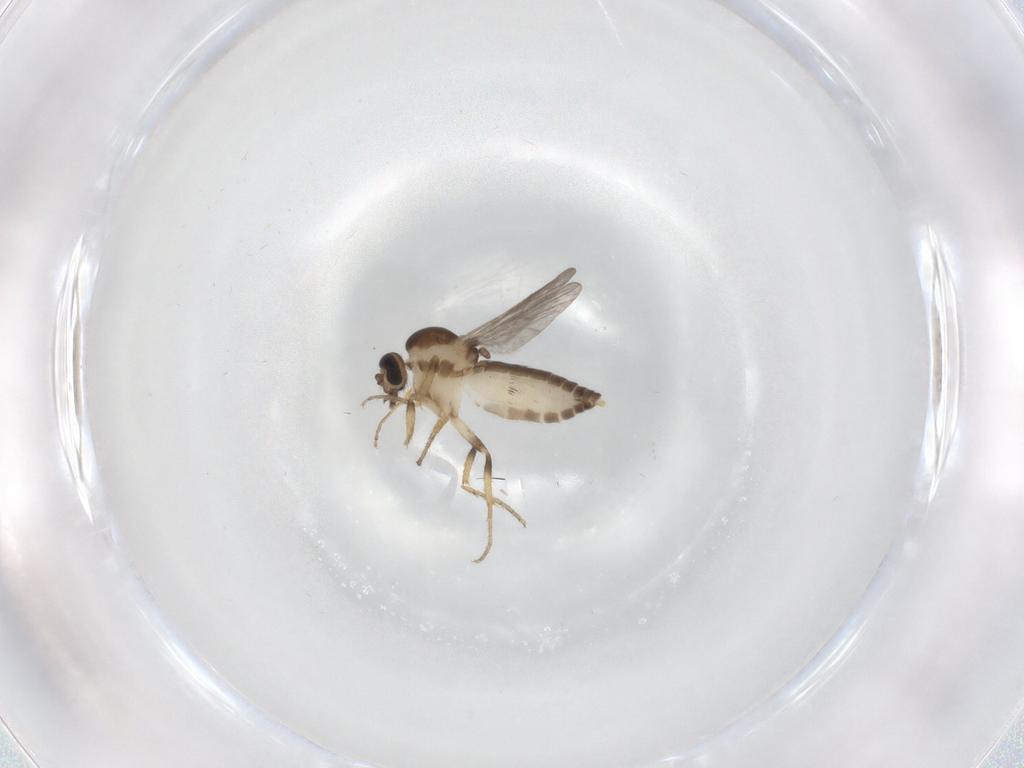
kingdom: Animalia
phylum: Arthropoda
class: Insecta
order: Diptera
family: Ceratopogonidae
